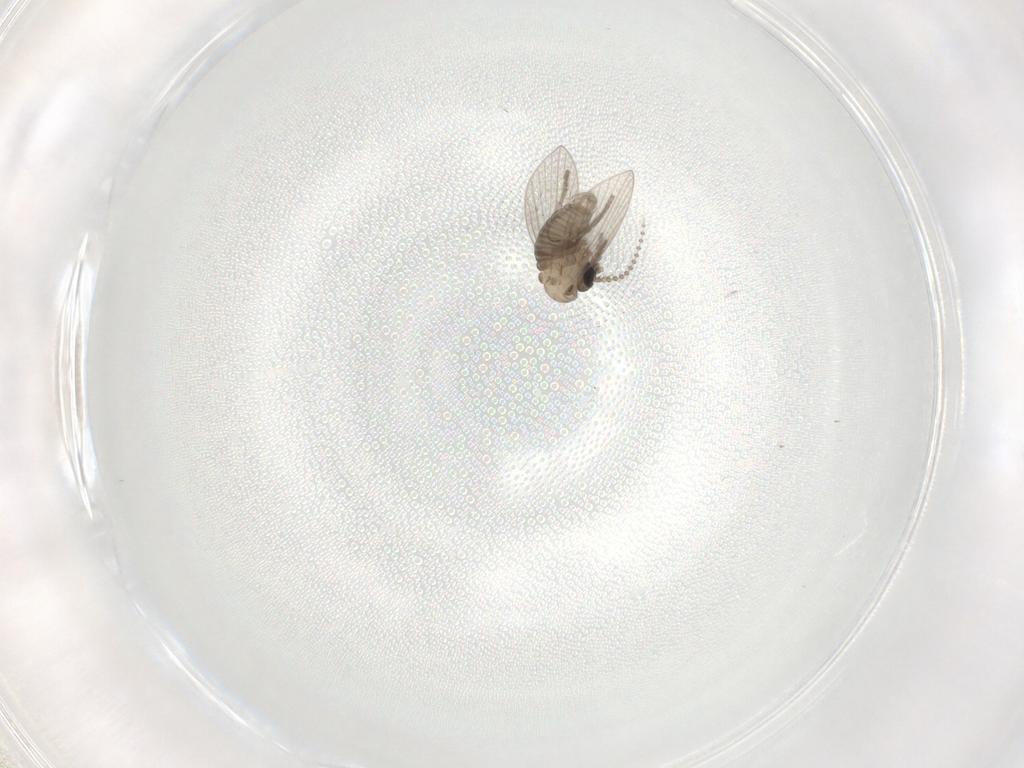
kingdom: Animalia
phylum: Arthropoda
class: Insecta
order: Diptera
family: Psychodidae
